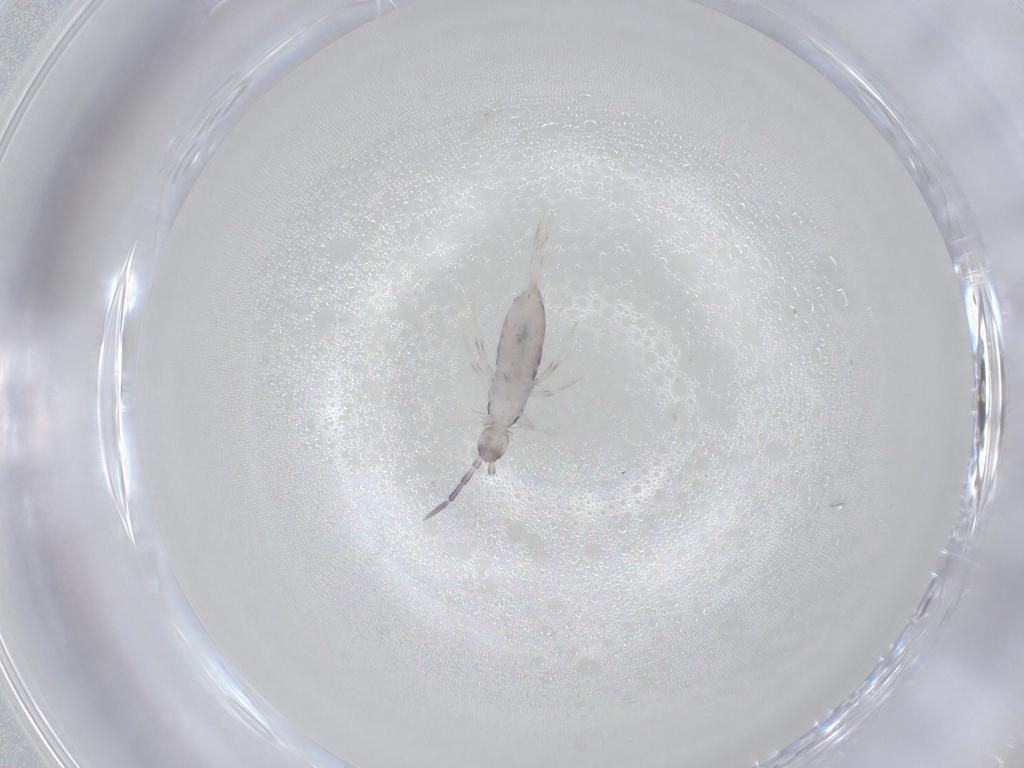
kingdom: Animalia
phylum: Arthropoda
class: Collembola
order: Entomobryomorpha
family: Entomobryidae
